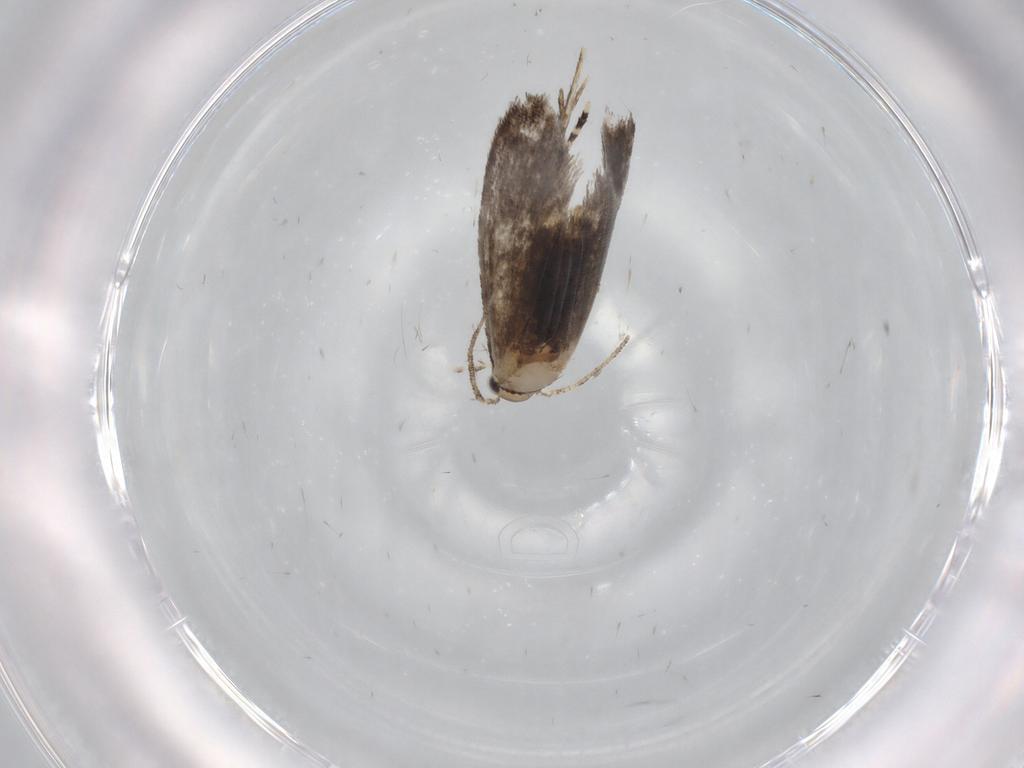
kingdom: Animalia
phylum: Arthropoda
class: Insecta
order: Lepidoptera
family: Tineidae
